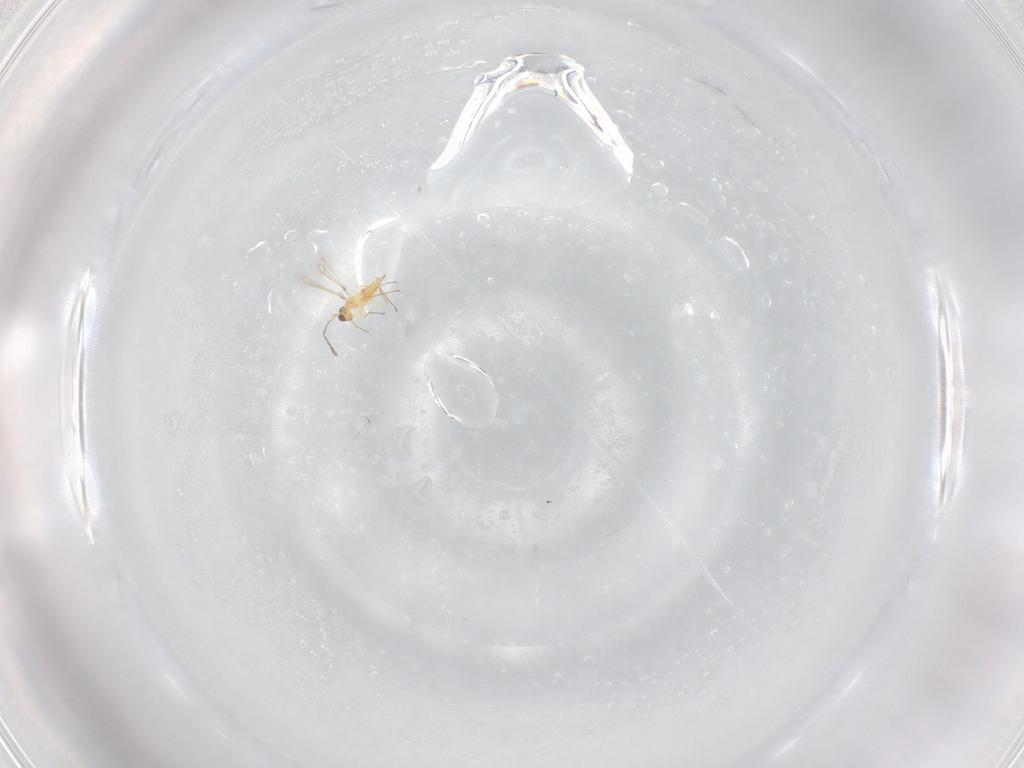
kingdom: Animalia
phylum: Arthropoda
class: Insecta
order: Hymenoptera
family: Mymaridae
